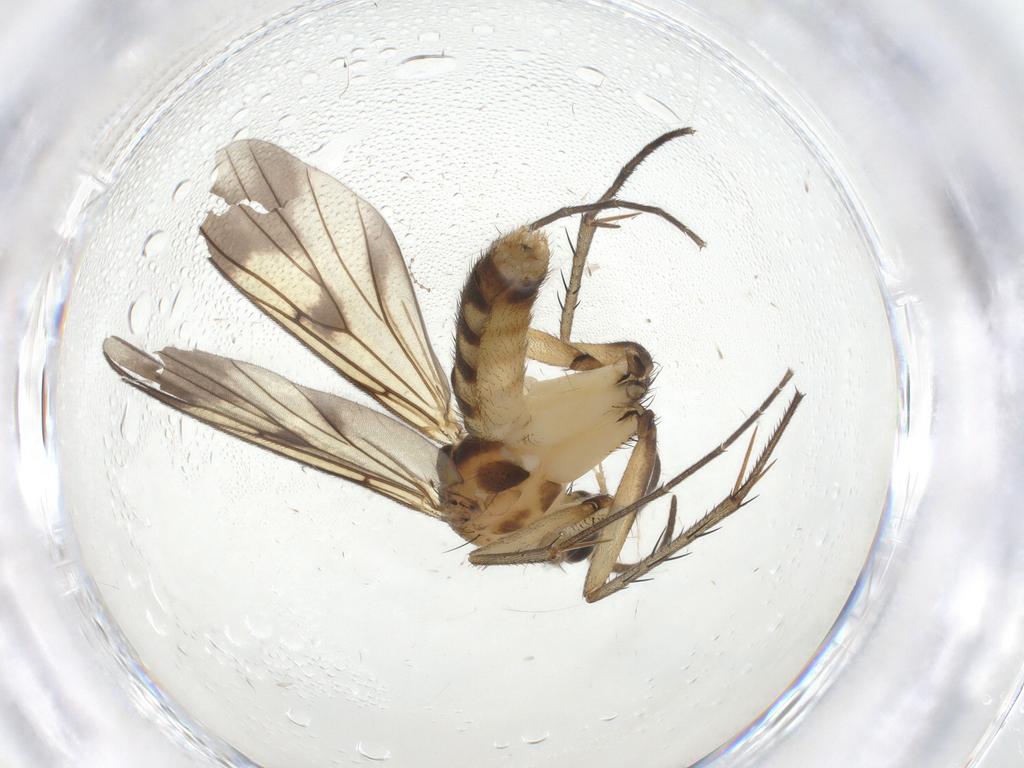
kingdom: Animalia
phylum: Arthropoda
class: Insecta
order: Diptera
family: Mycetophilidae
